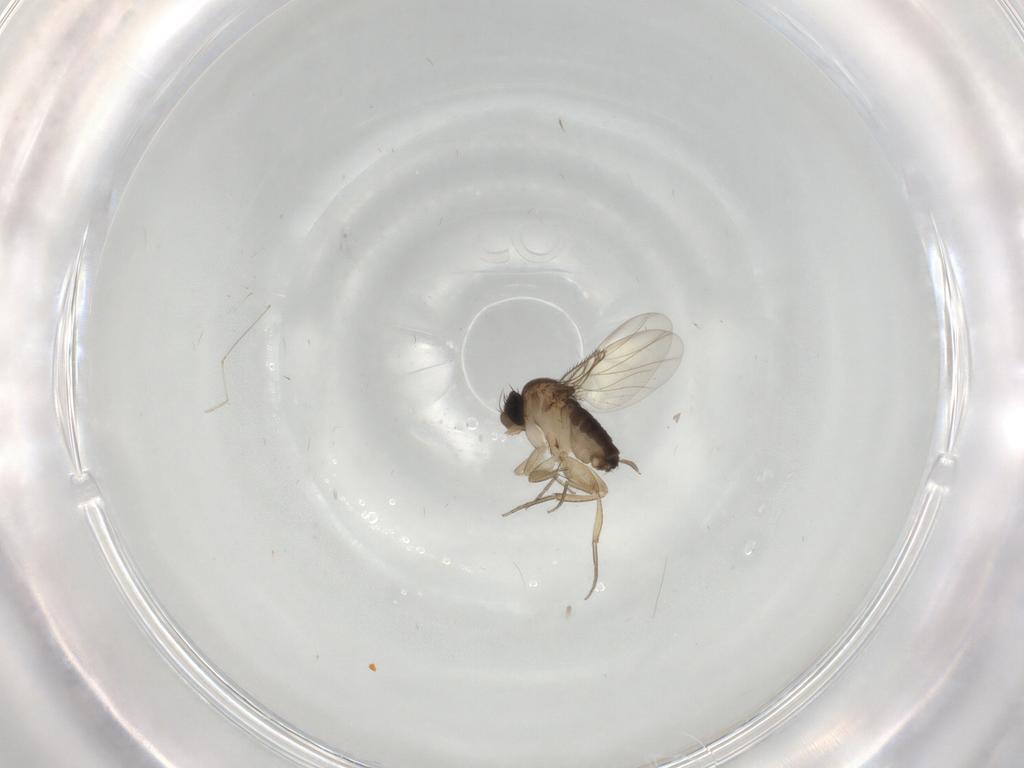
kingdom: Animalia
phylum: Arthropoda
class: Insecta
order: Diptera
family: Cecidomyiidae
